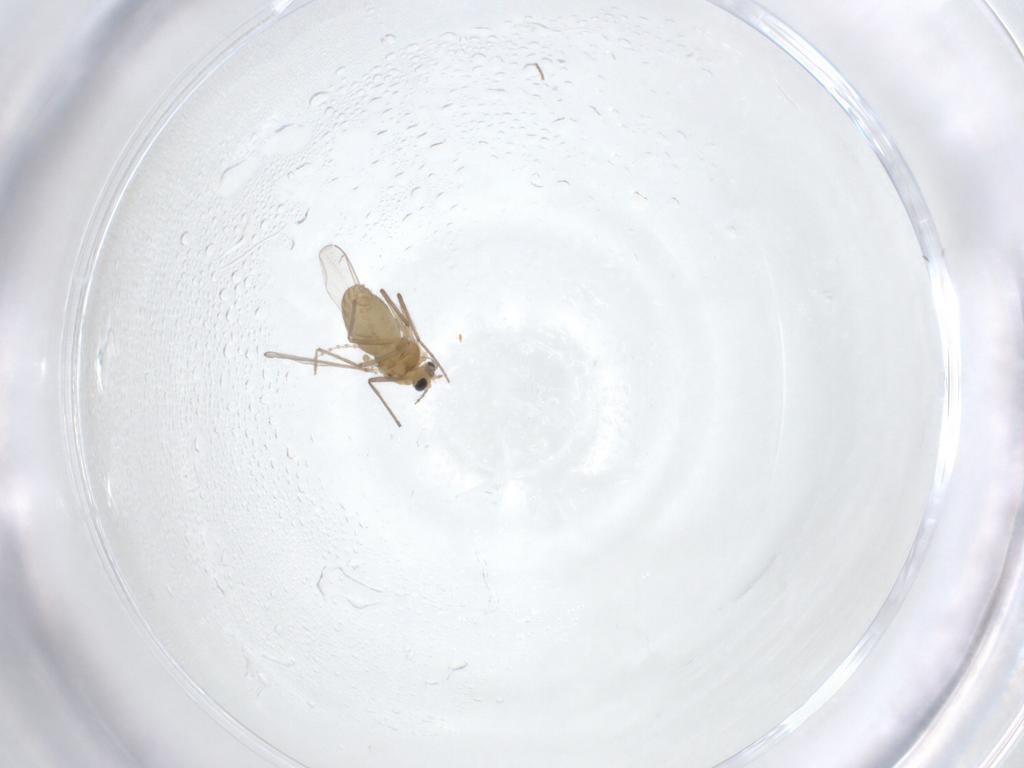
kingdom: Animalia
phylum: Arthropoda
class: Insecta
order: Diptera
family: Chironomidae
